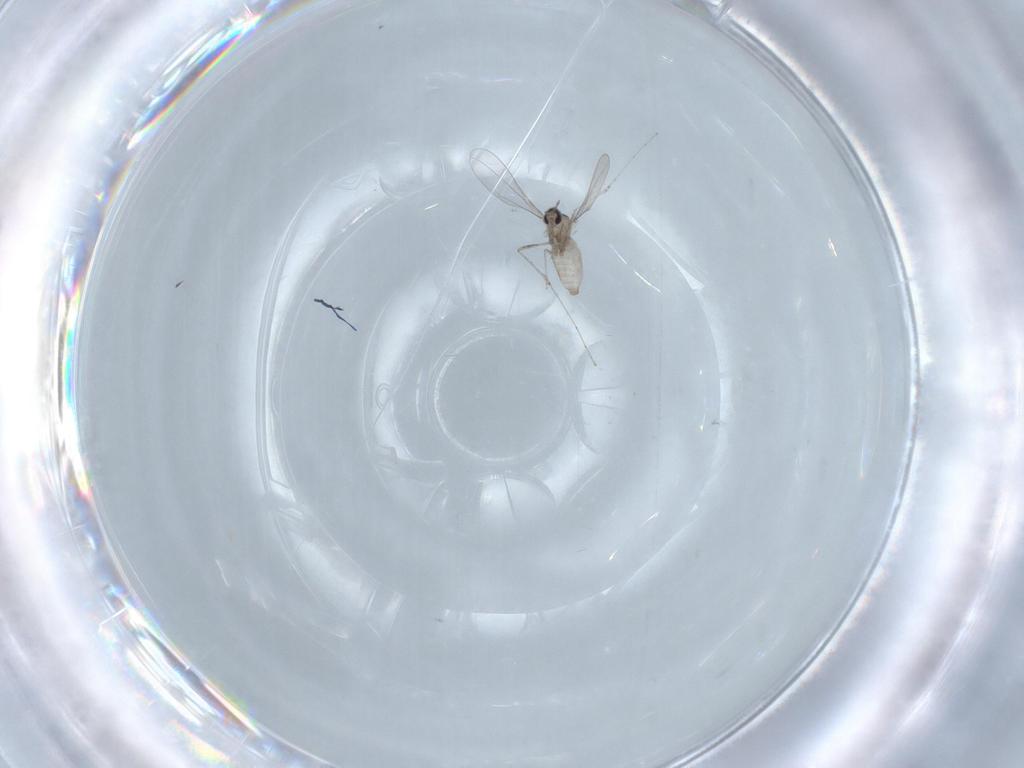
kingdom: Animalia
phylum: Arthropoda
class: Insecta
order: Diptera
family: Cecidomyiidae
